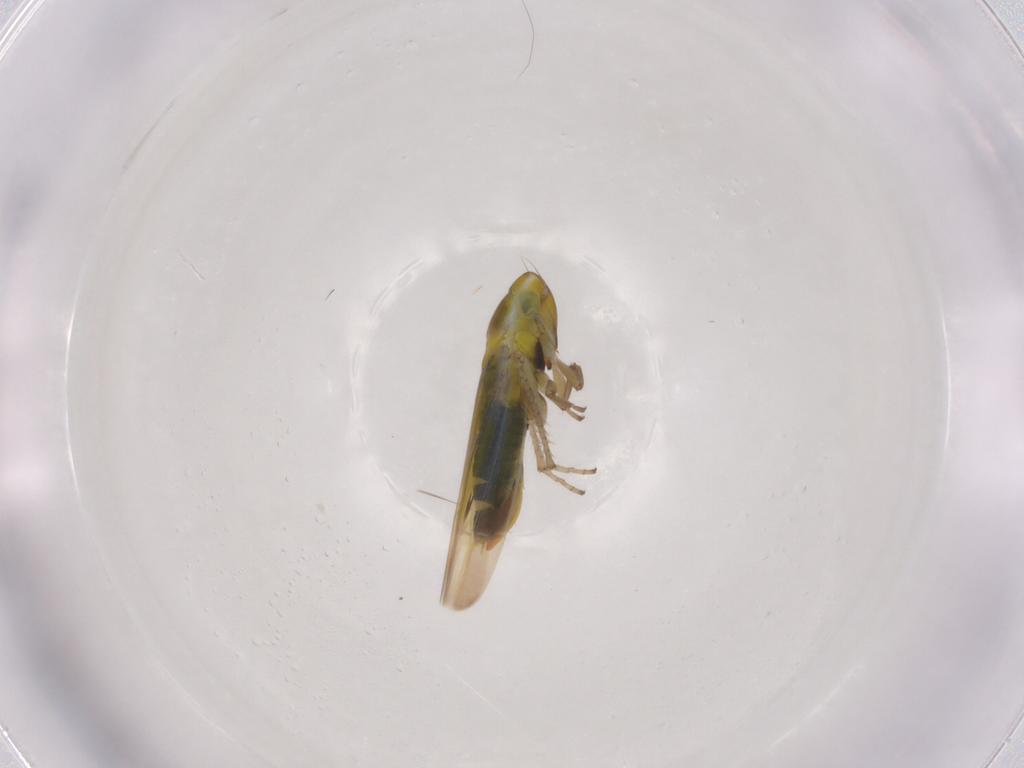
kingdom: Animalia
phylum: Arthropoda
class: Insecta
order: Hemiptera
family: Cicadellidae
